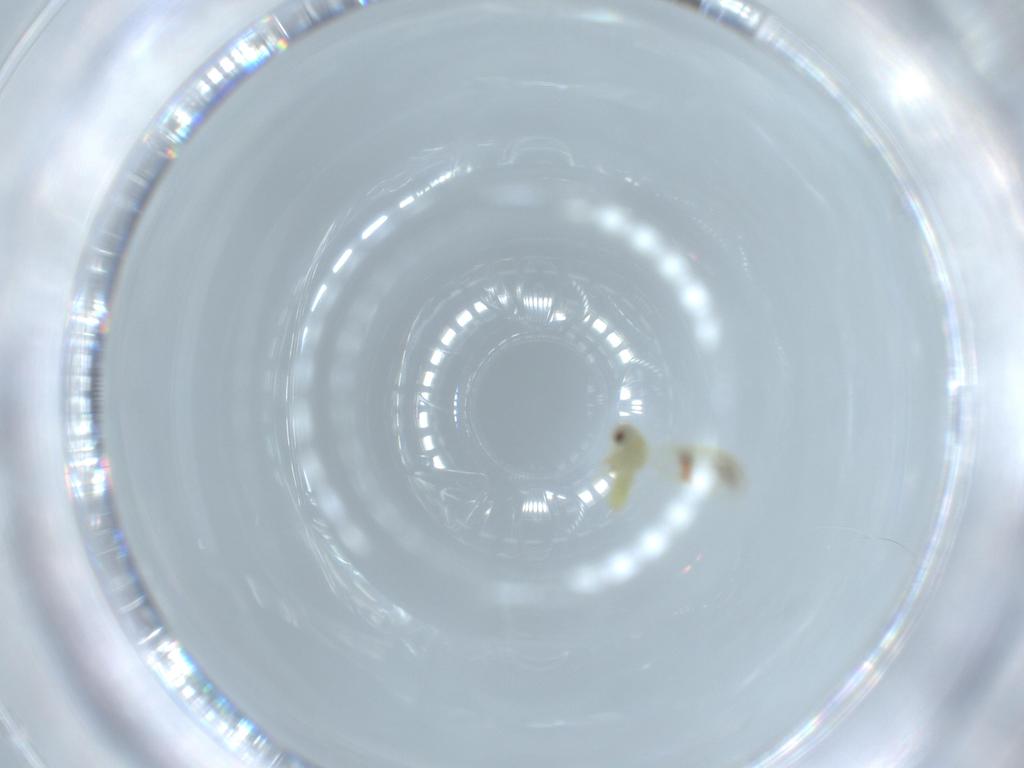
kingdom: Animalia
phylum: Arthropoda
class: Insecta
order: Hemiptera
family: Aleyrodidae
